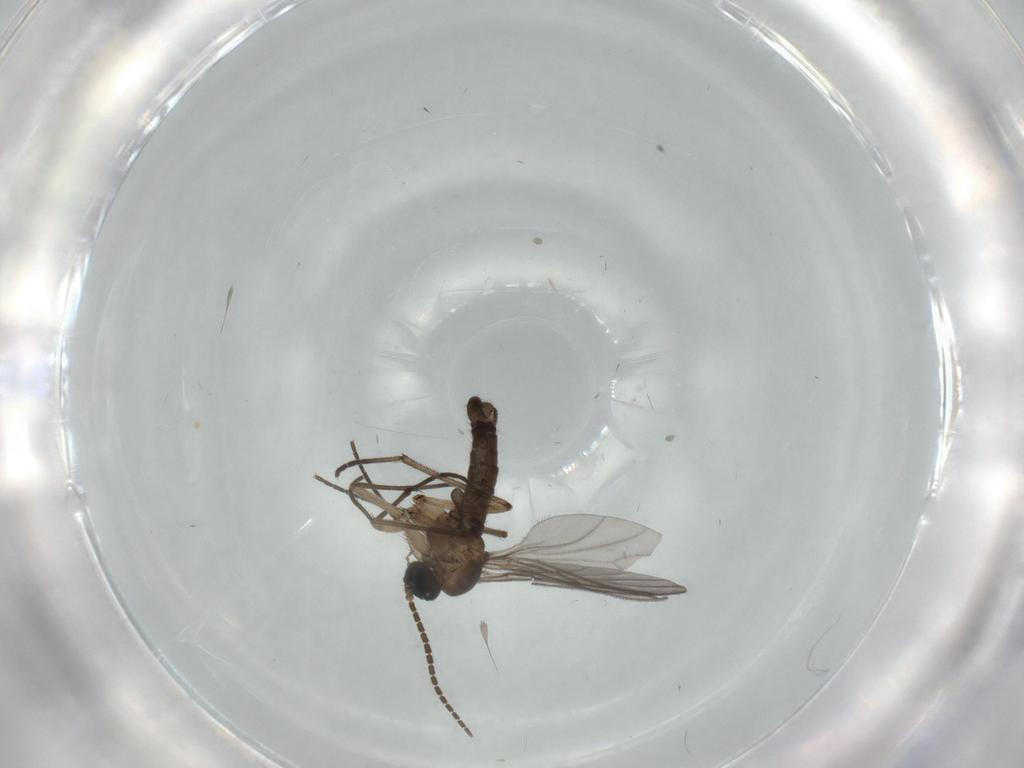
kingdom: Animalia
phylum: Arthropoda
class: Insecta
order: Diptera
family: Sciaridae
